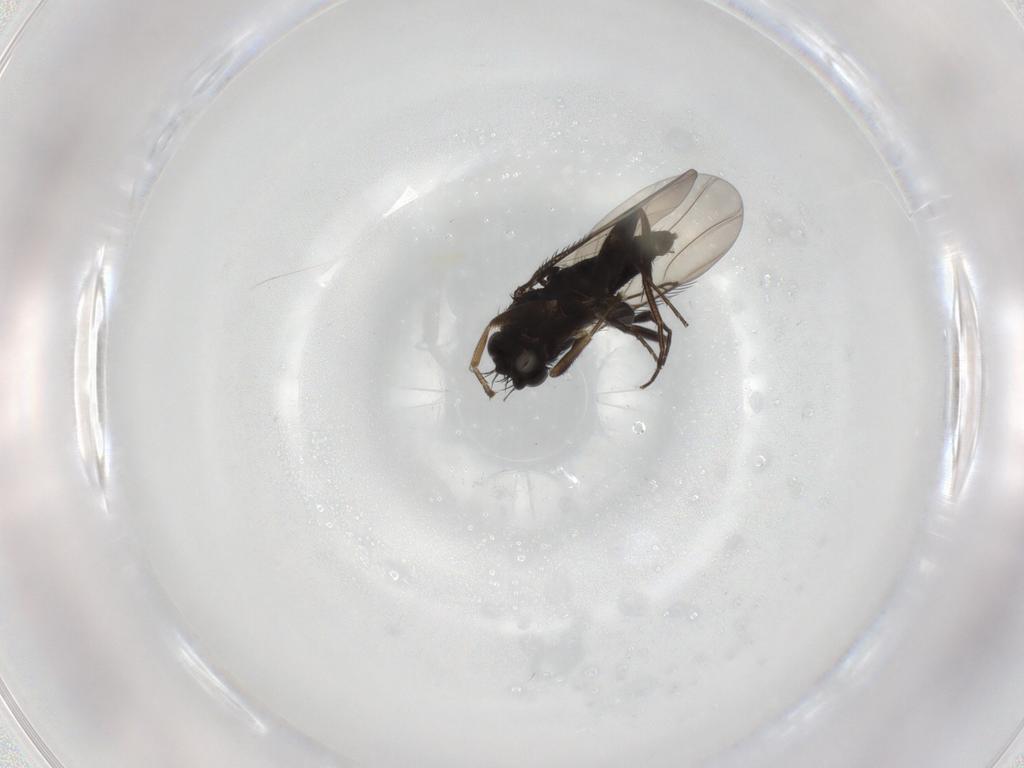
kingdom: Animalia
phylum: Arthropoda
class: Insecta
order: Diptera
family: Phoridae
